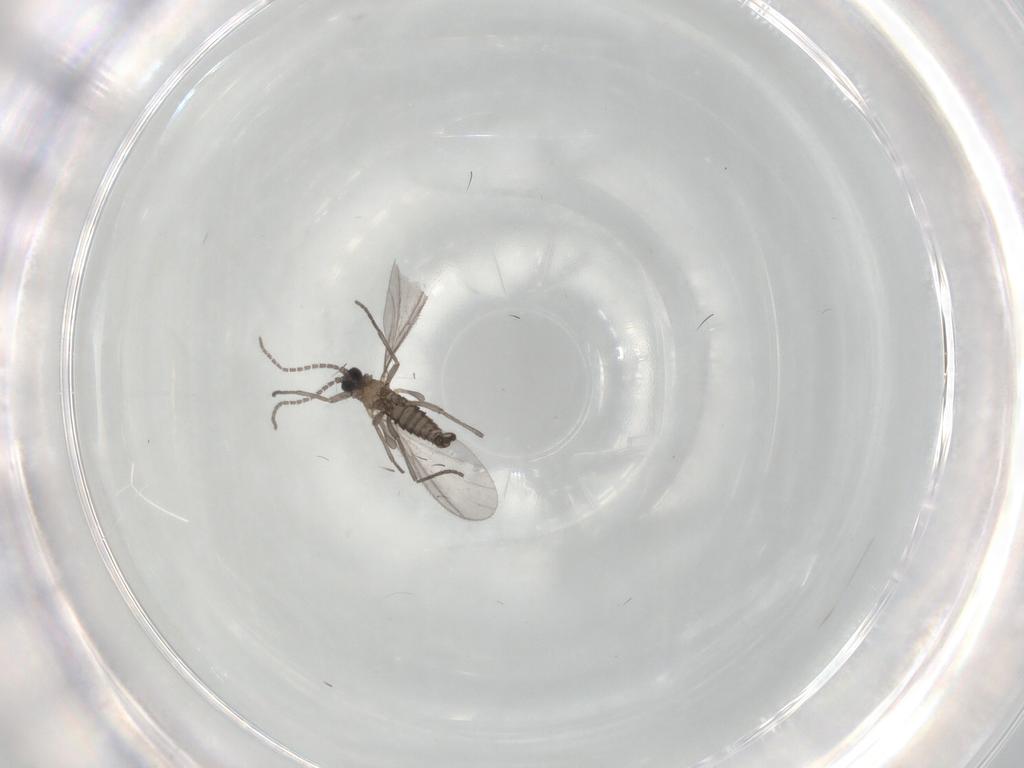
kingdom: Animalia
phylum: Arthropoda
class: Insecta
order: Diptera
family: Sciaridae
